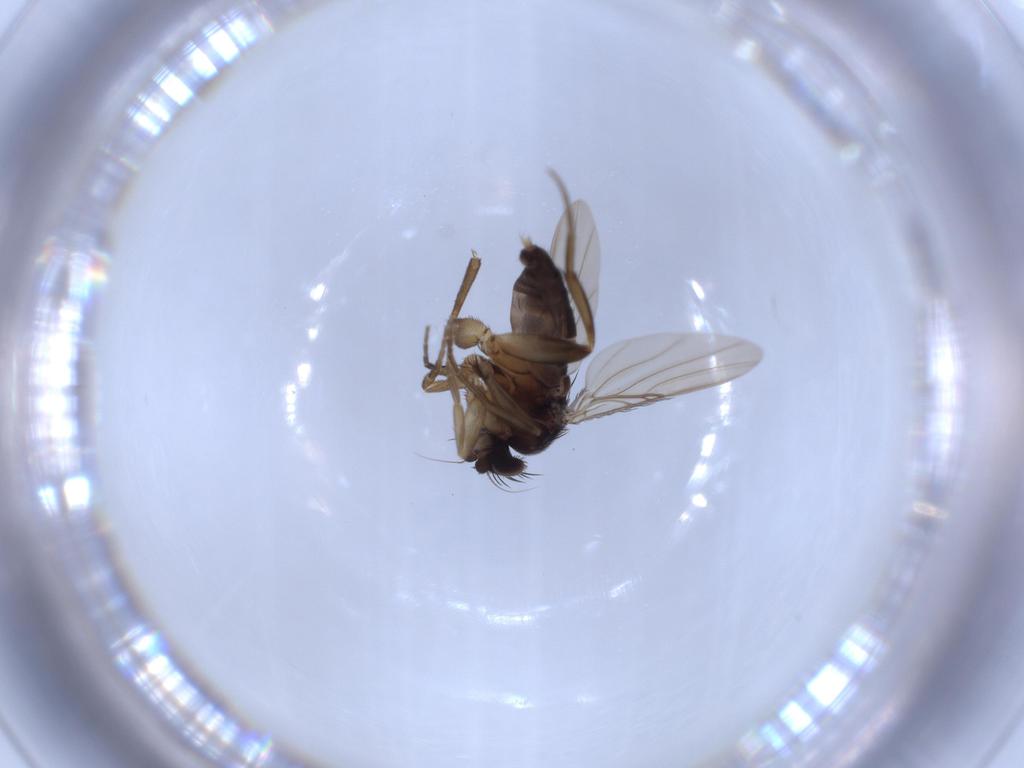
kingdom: Animalia
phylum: Arthropoda
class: Insecta
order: Diptera
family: Phoridae
